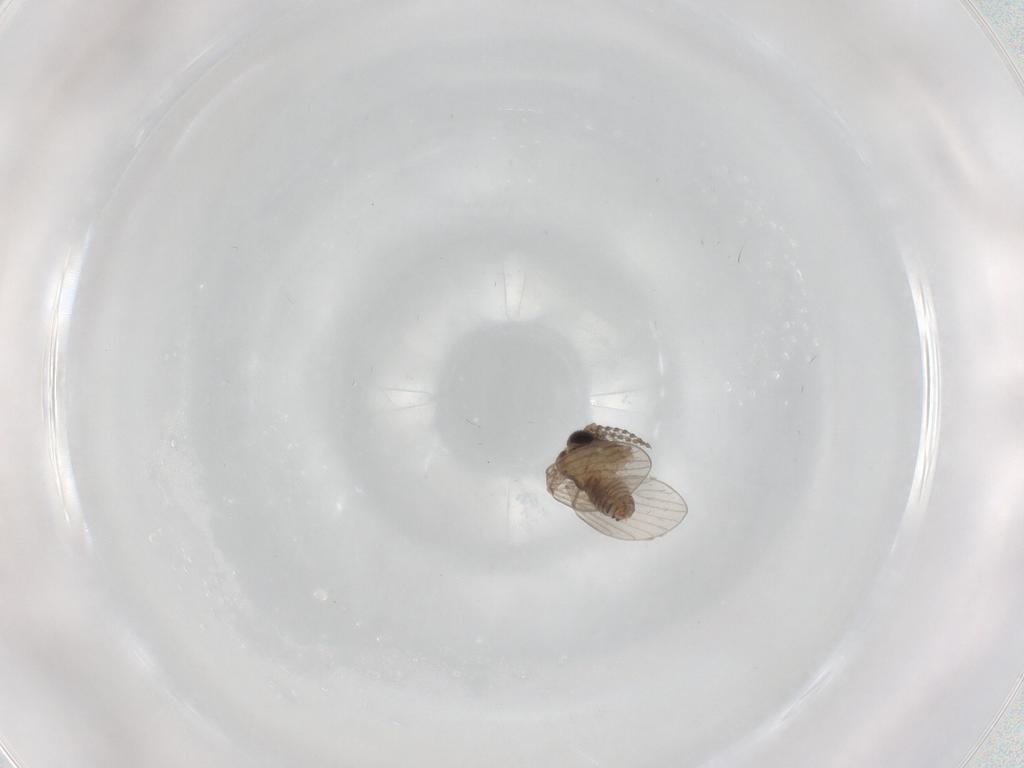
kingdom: Animalia
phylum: Arthropoda
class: Insecta
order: Diptera
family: Psychodidae
